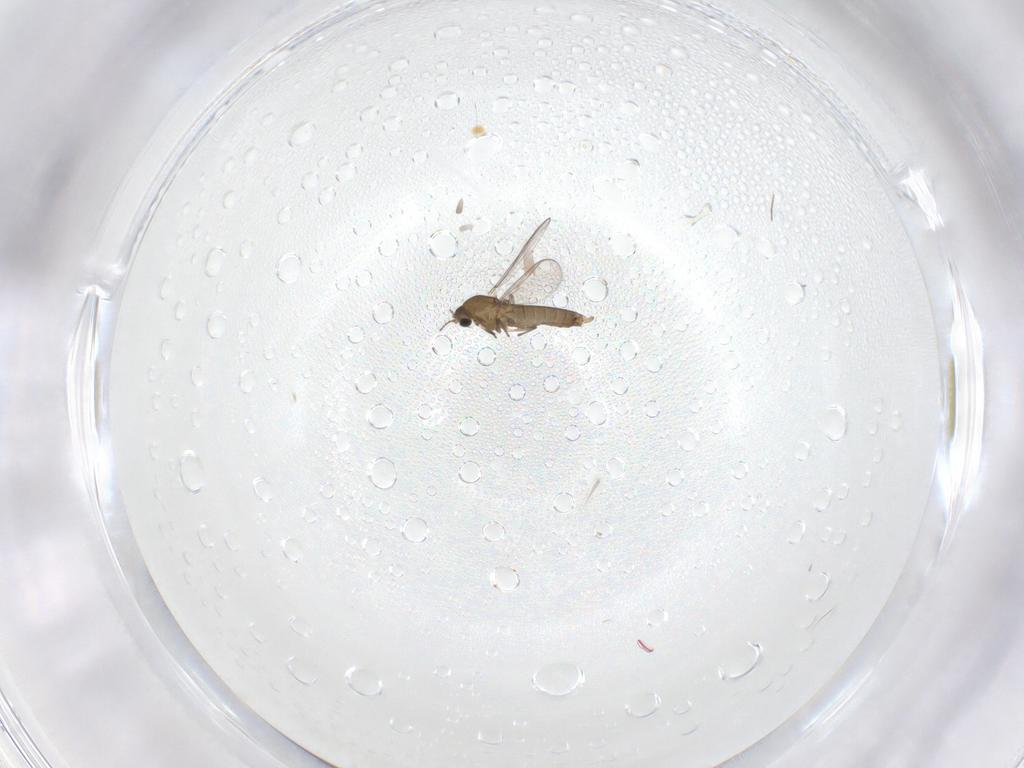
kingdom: Animalia
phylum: Arthropoda
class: Insecta
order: Diptera
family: Chironomidae
